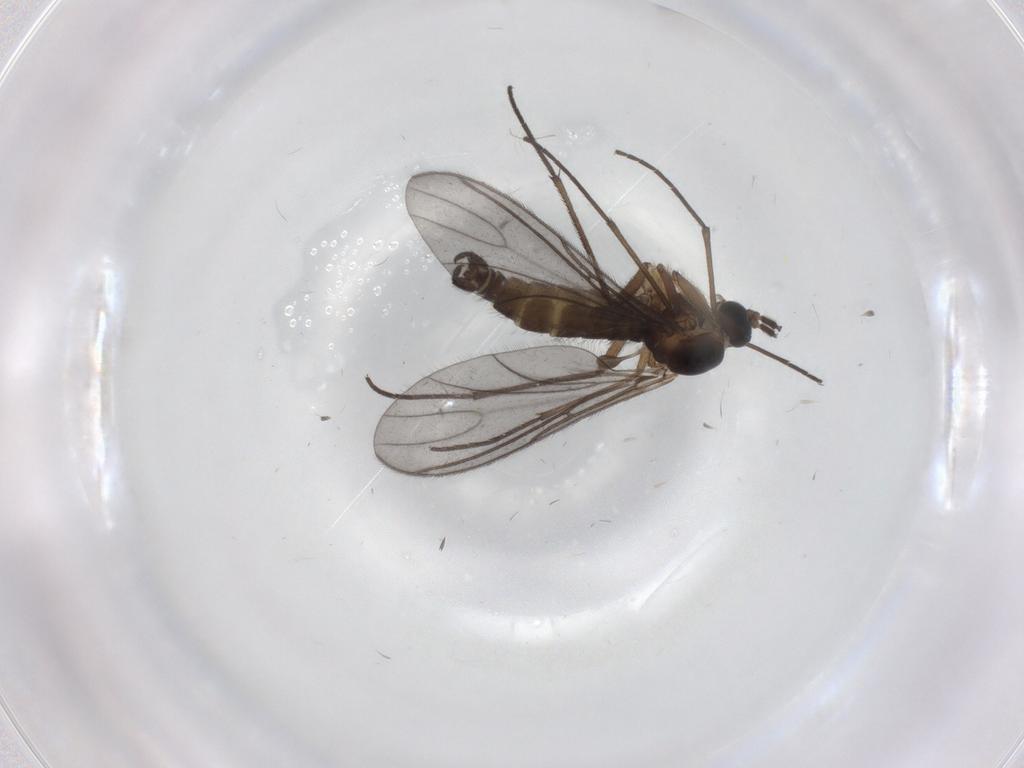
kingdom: Animalia
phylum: Arthropoda
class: Insecta
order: Diptera
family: Chironomidae
